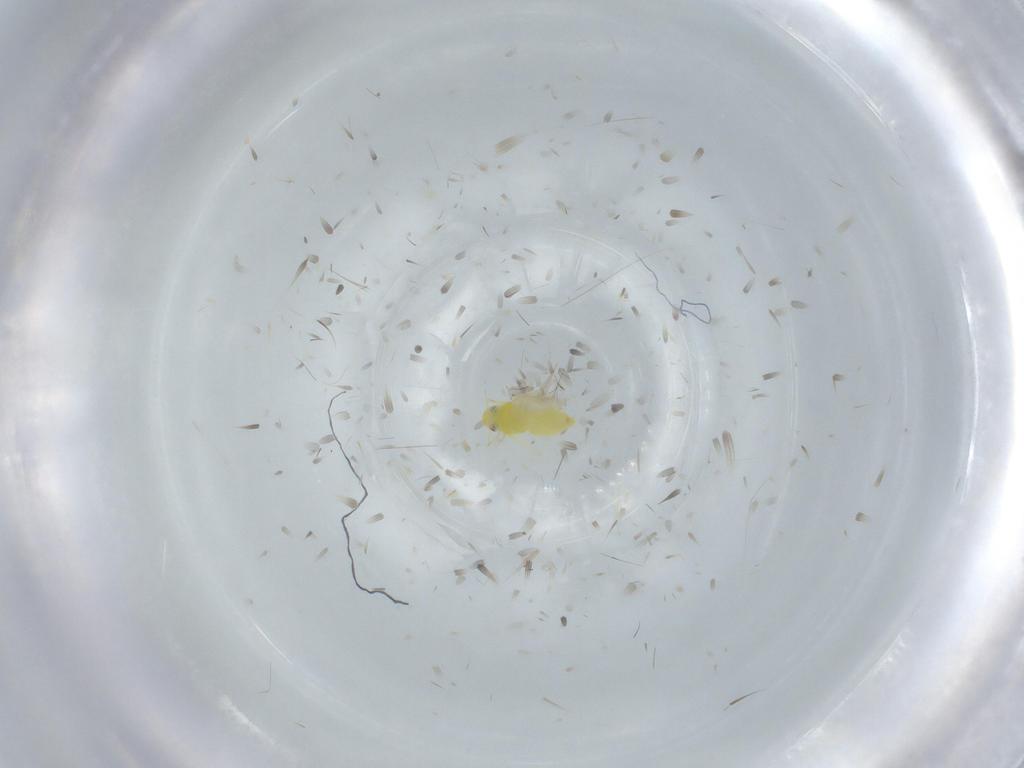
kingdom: Animalia
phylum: Arthropoda
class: Insecta
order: Hemiptera
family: Aleyrodidae
